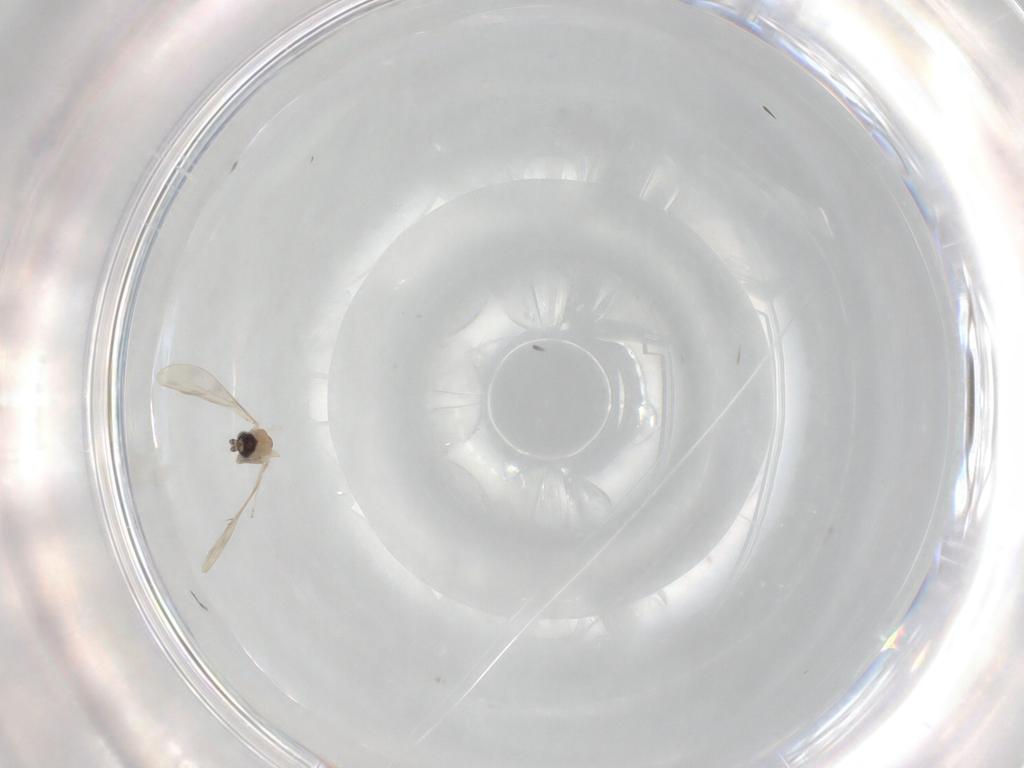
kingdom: Animalia
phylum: Arthropoda
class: Insecta
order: Diptera
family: Cecidomyiidae
